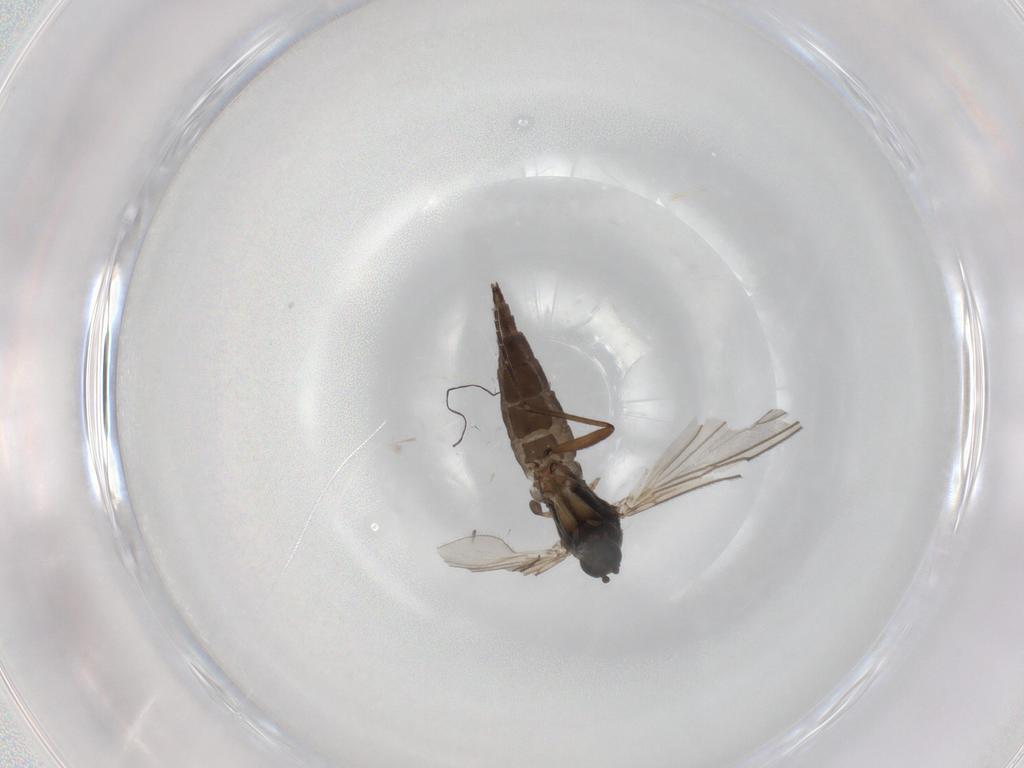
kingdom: Animalia
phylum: Arthropoda
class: Insecta
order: Diptera
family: Sciaridae
